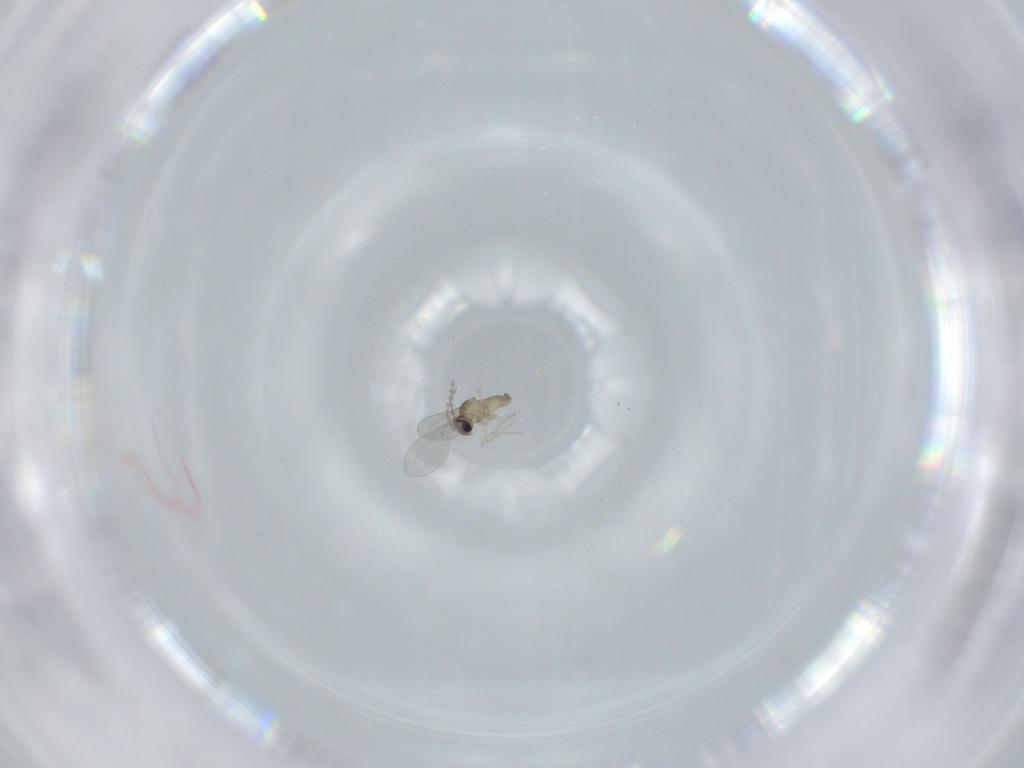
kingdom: Animalia
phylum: Arthropoda
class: Insecta
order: Diptera
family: Cecidomyiidae
